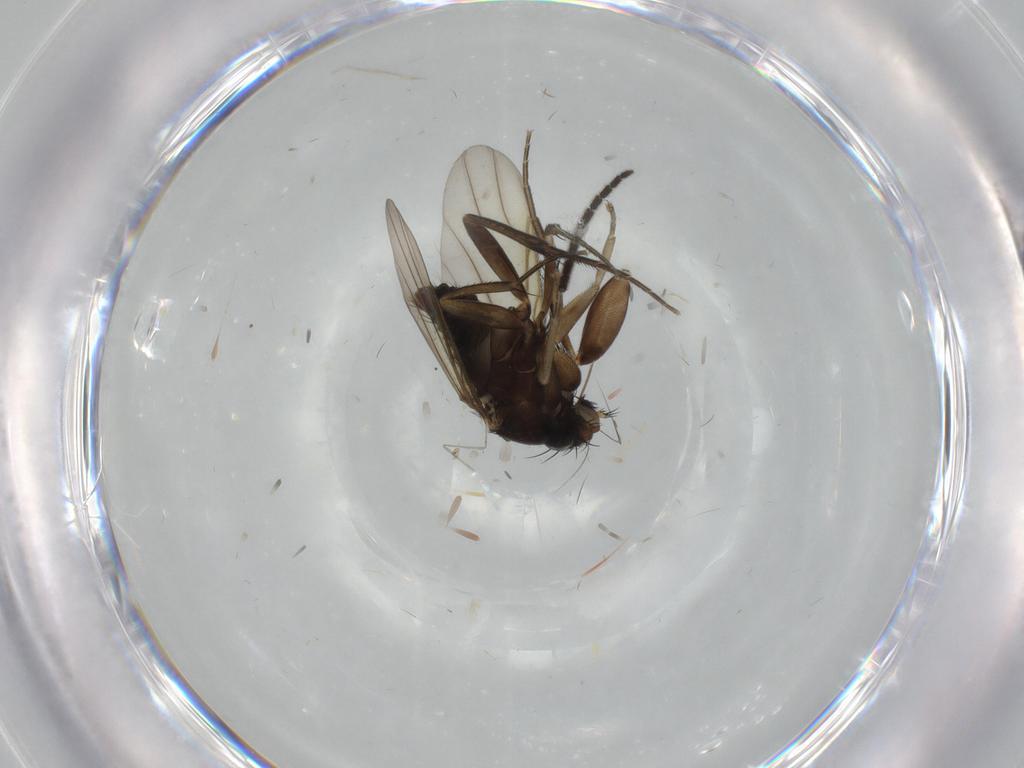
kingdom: Animalia
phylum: Arthropoda
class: Insecta
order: Diptera
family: Phoridae
